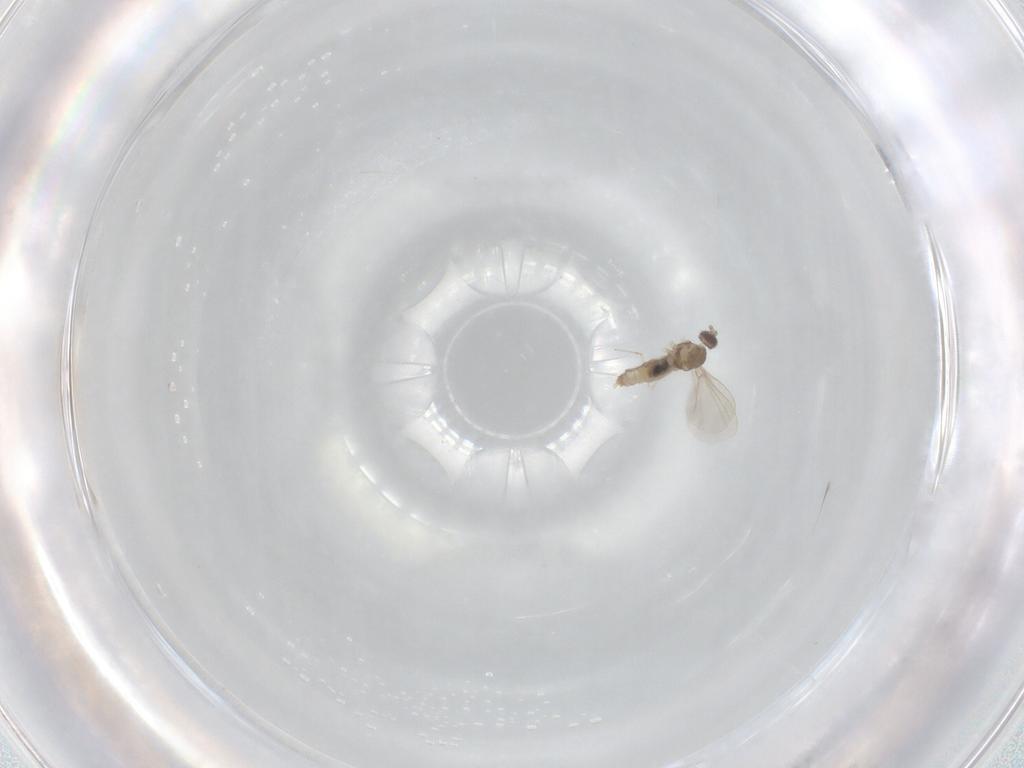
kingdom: Animalia
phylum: Arthropoda
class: Insecta
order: Diptera
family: Cecidomyiidae
